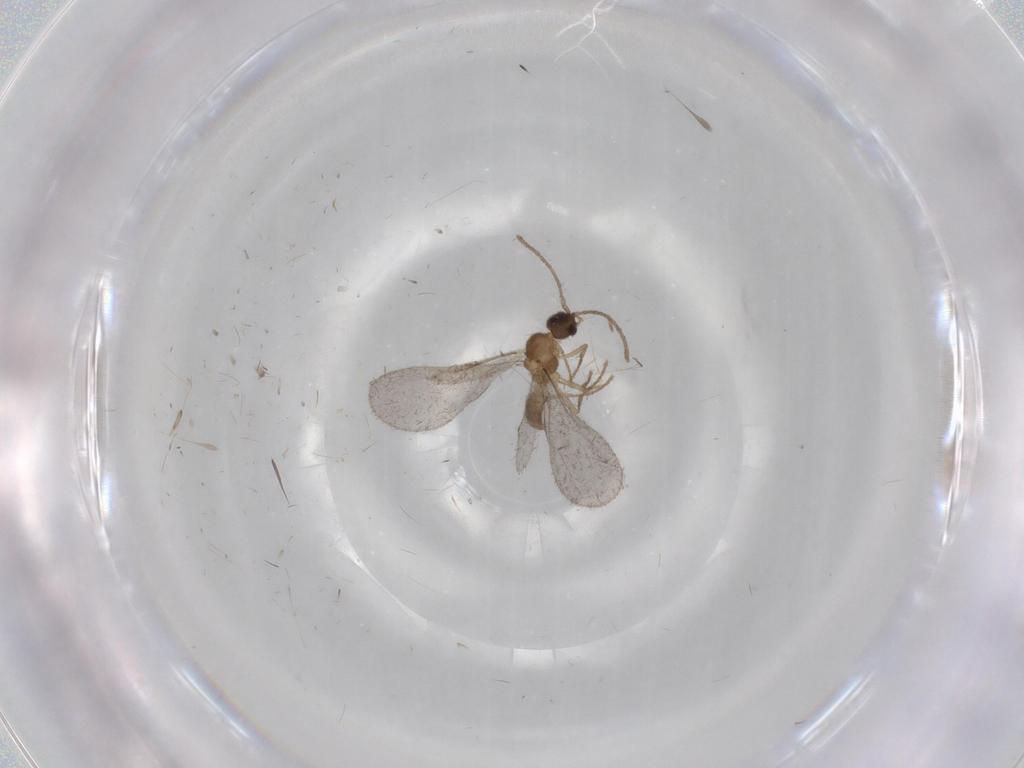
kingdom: Animalia
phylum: Arthropoda
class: Insecta
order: Hymenoptera
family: Formicidae
